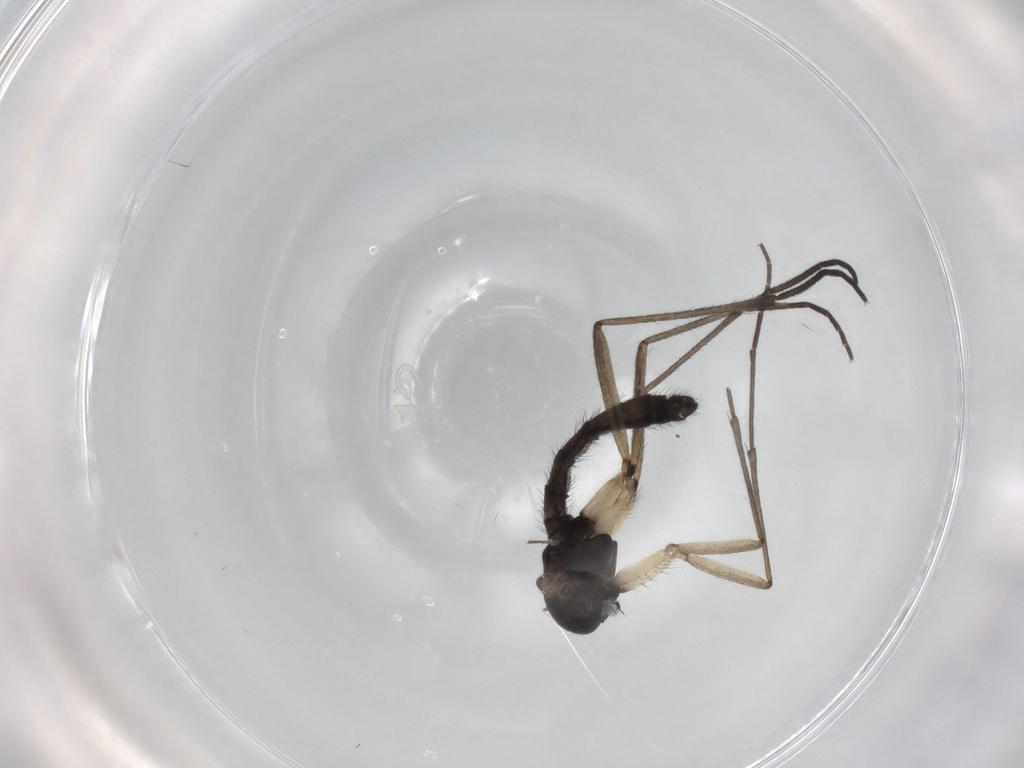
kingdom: Animalia
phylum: Arthropoda
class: Insecta
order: Diptera
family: Sciaridae
